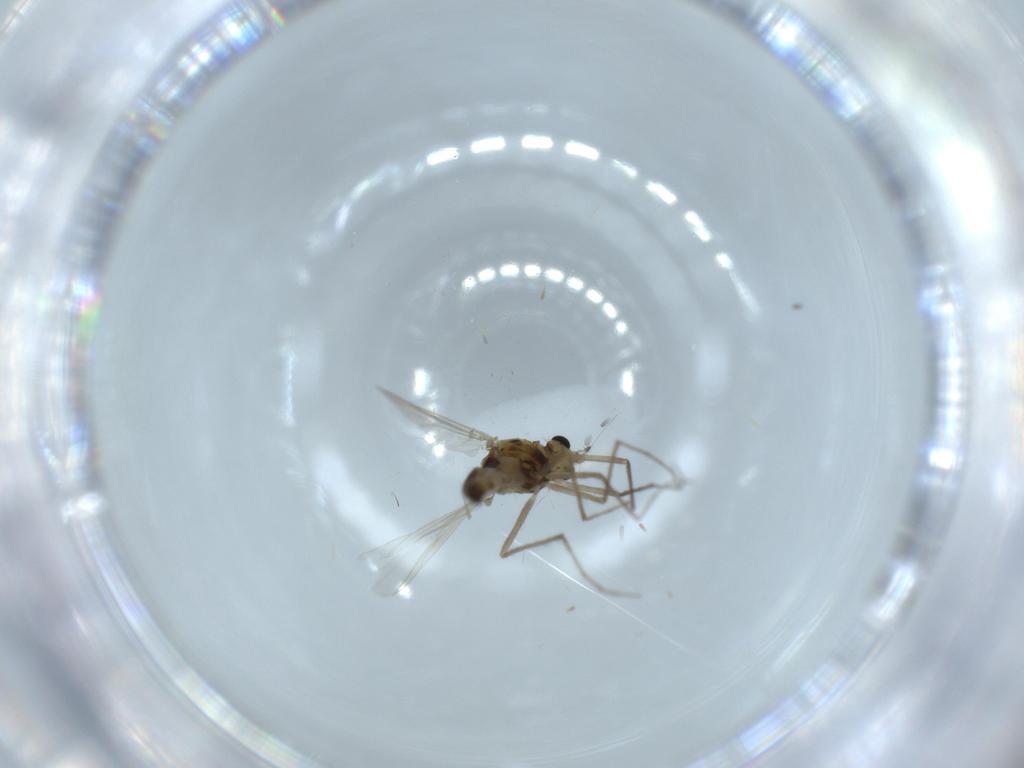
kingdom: Animalia
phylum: Arthropoda
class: Insecta
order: Diptera
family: Chironomidae
